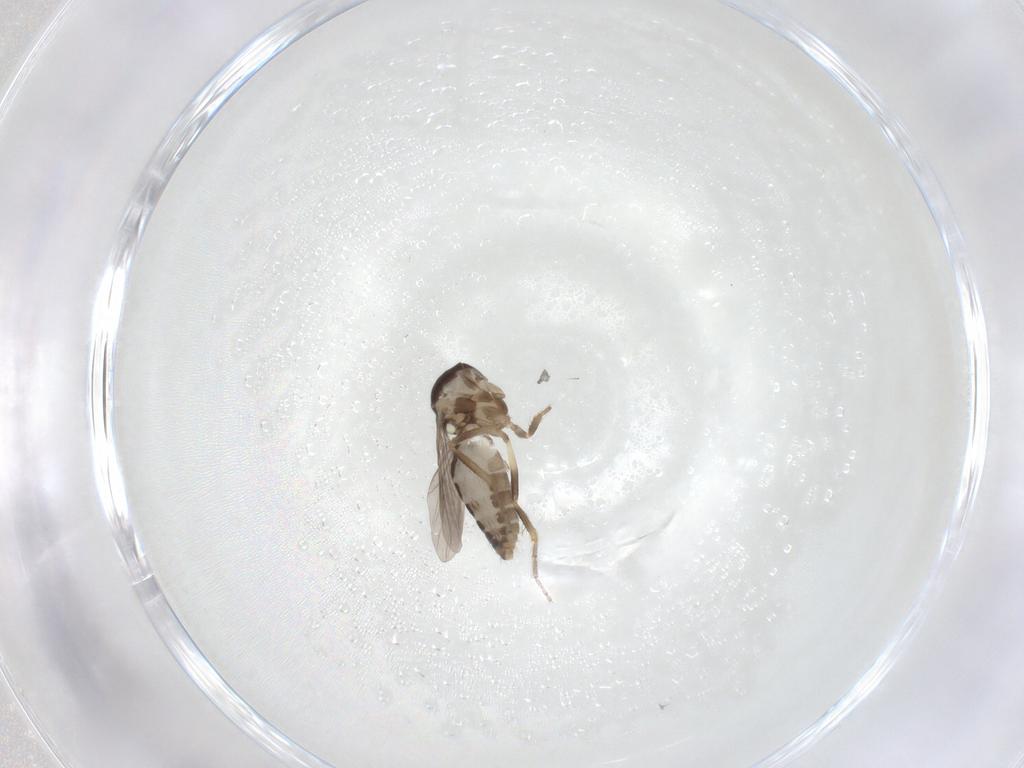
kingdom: Animalia
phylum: Arthropoda
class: Insecta
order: Diptera
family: Ceratopogonidae
